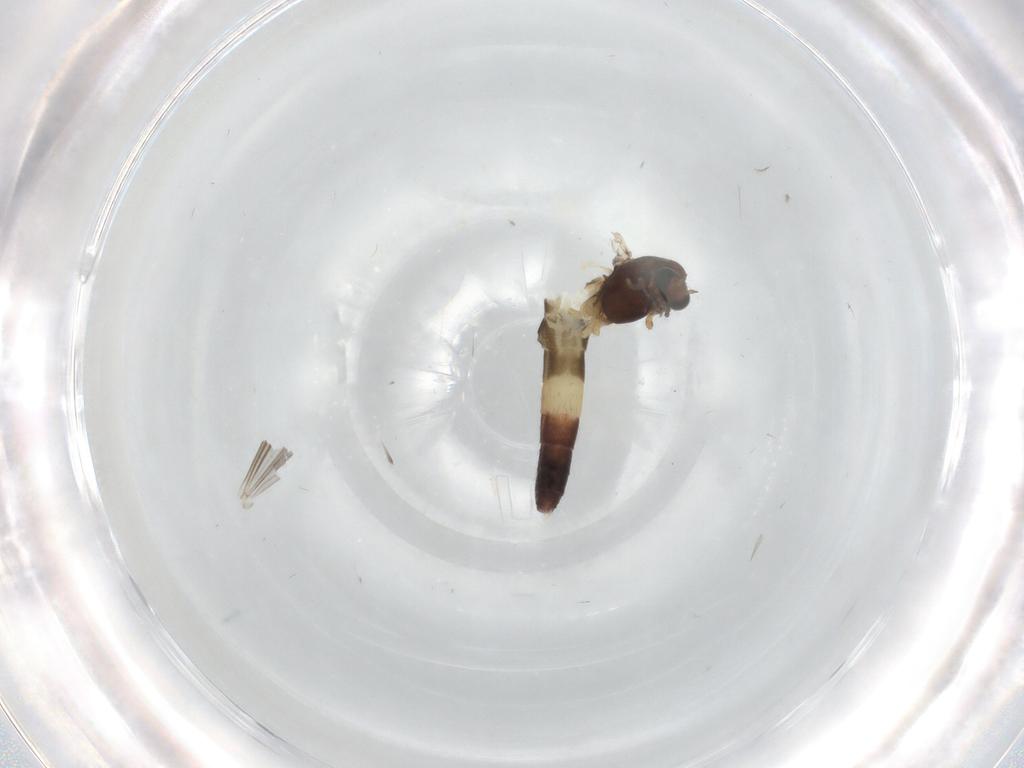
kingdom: Animalia
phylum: Arthropoda
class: Insecta
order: Diptera
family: Chironomidae
